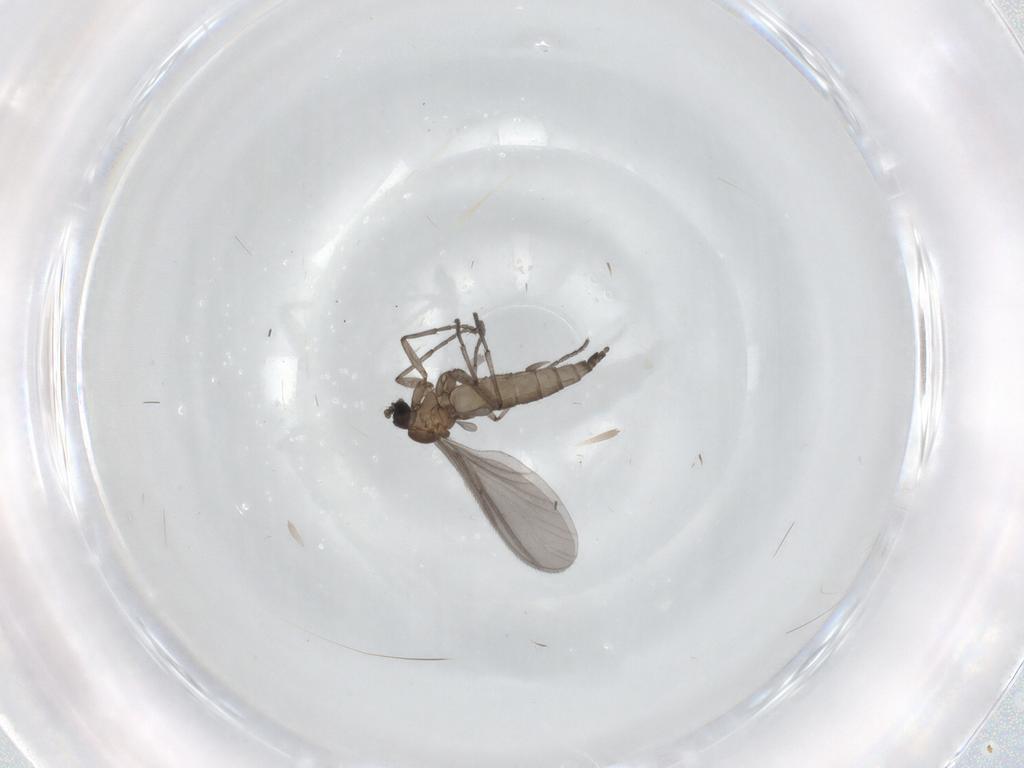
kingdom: Animalia
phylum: Arthropoda
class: Insecta
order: Diptera
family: Sciaridae
